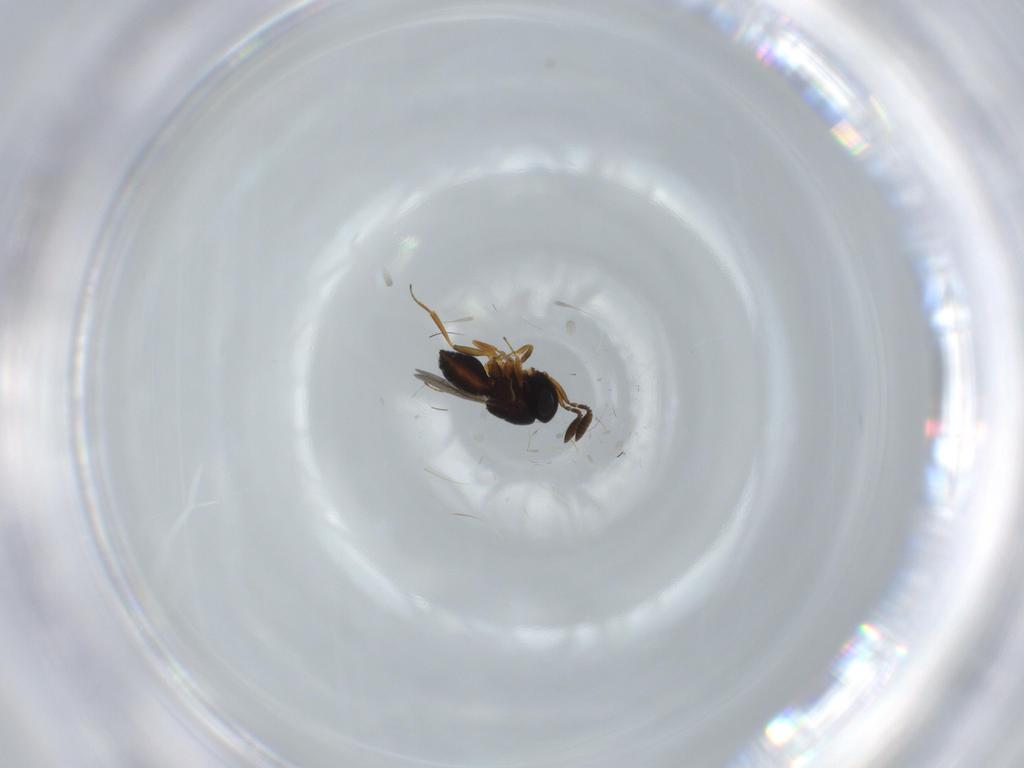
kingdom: Animalia
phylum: Arthropoda
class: Insecta
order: Coleoptera
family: Curculionidae
